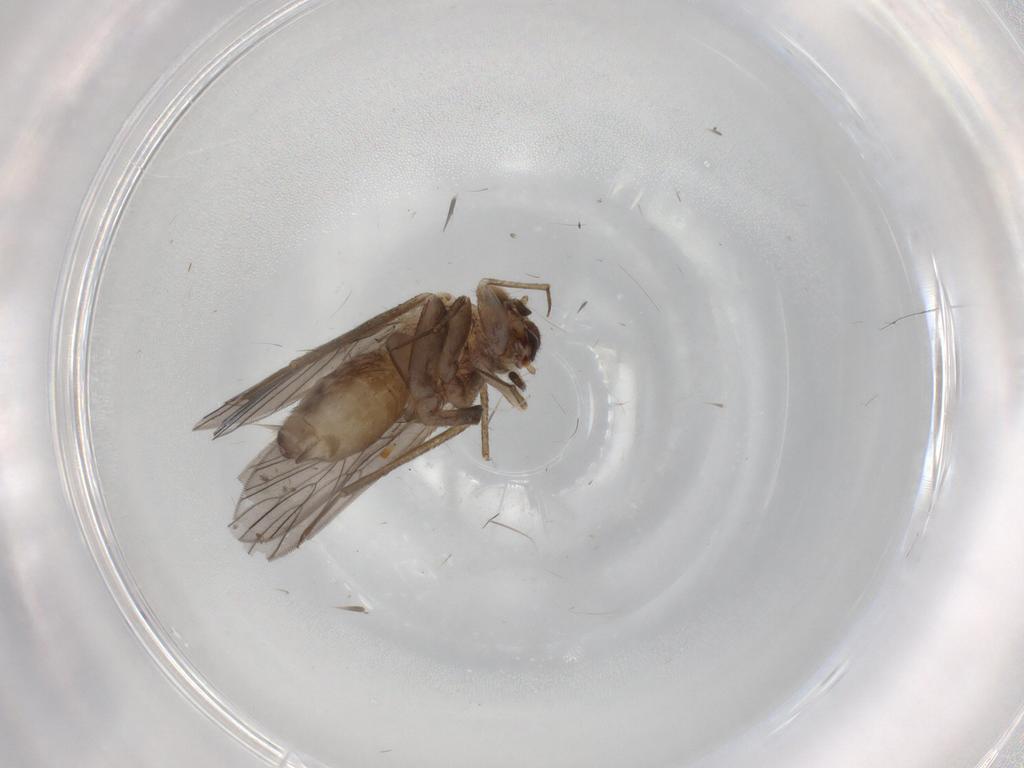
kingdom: Animalia
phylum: Arthropoda
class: Insecta
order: Psocodea
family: Lepidopsocidae
